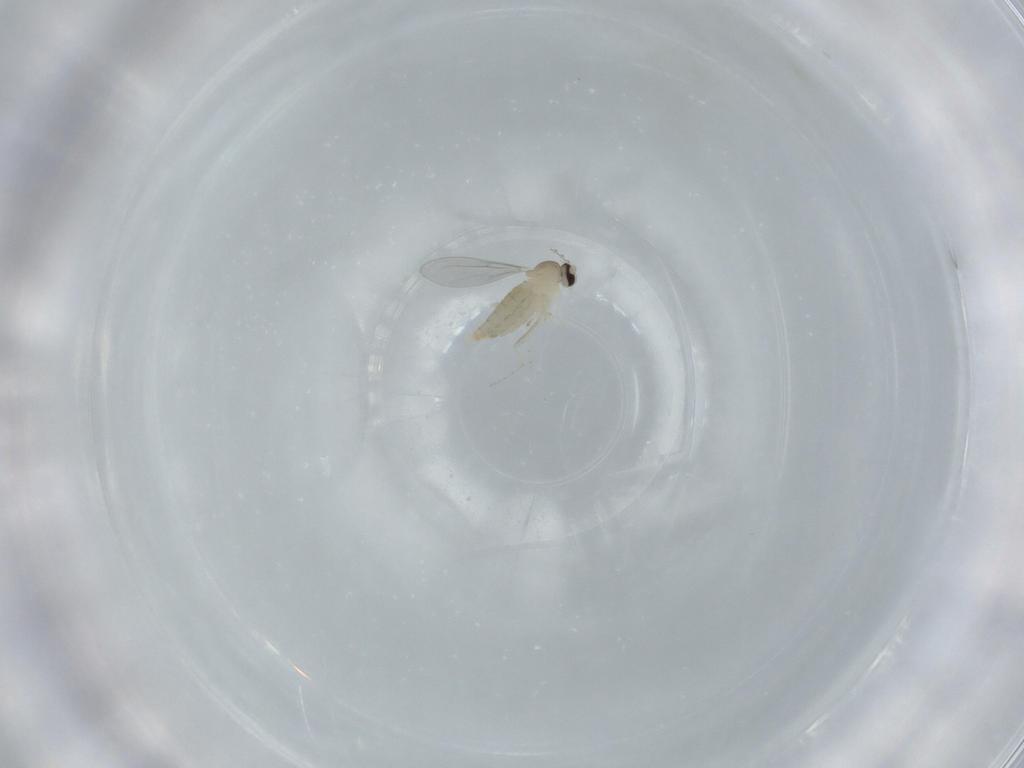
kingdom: Animalia
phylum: Arthropoda
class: Insecta
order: Diptera
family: Cecidomyiidae
